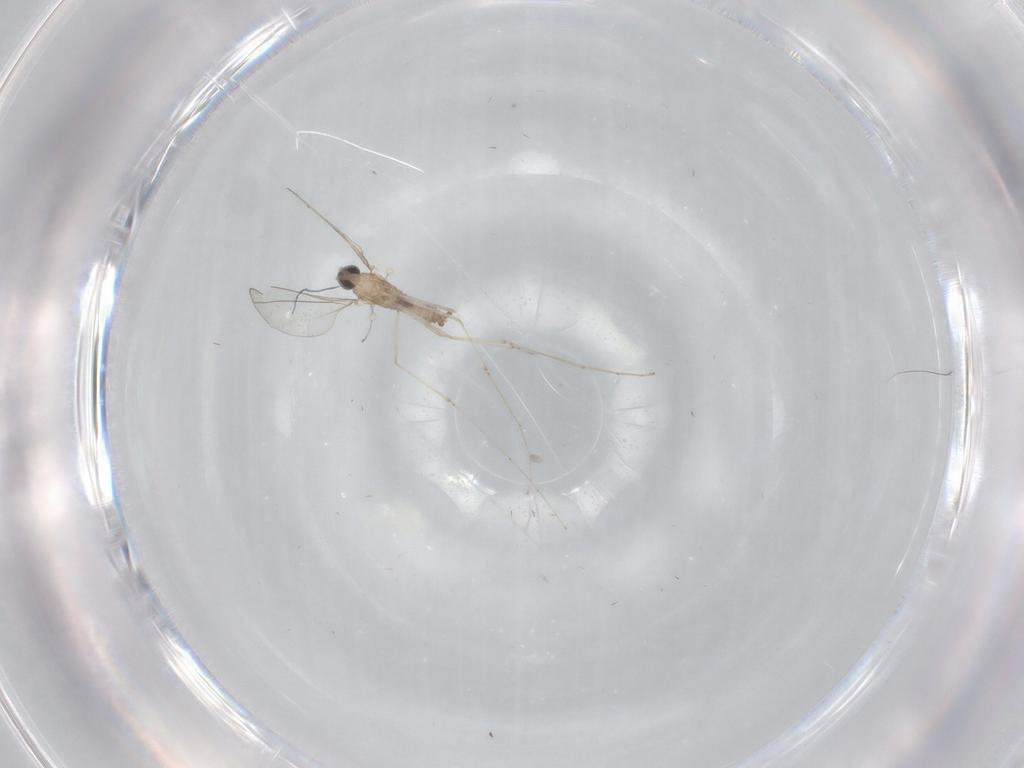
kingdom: Animalia
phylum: Arthropoda
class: Insecta
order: Diptera
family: Cecidomyiidae
